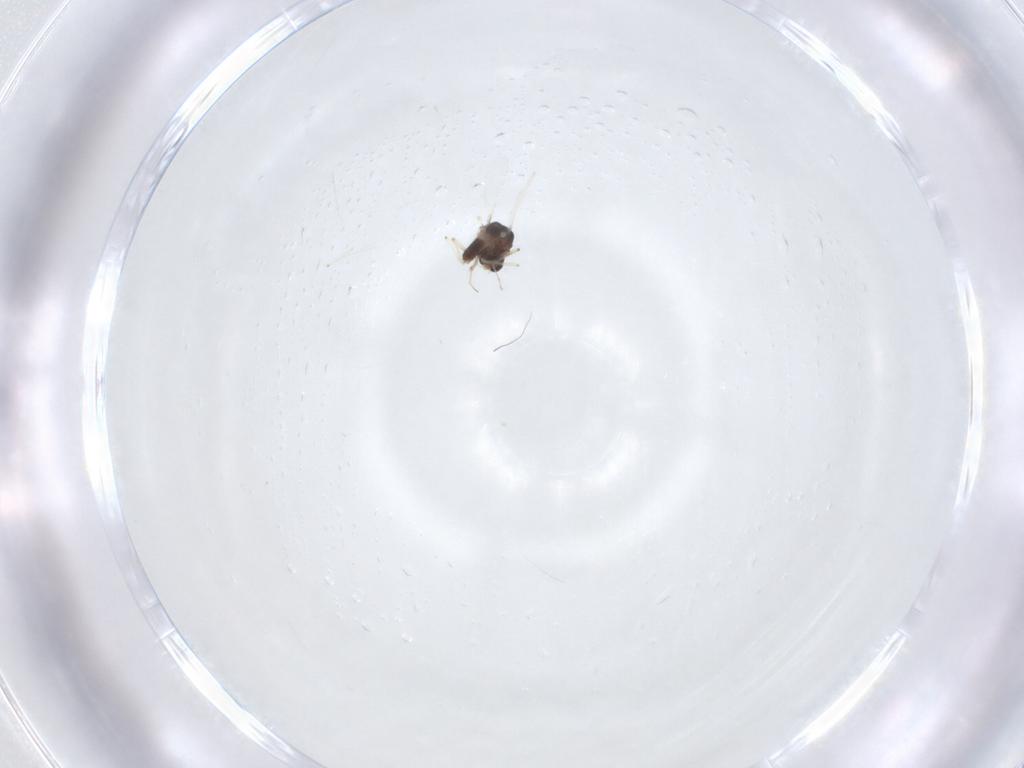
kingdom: Animalia
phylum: Arthropoda
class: Insecta
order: Diptera
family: Chironomidae
